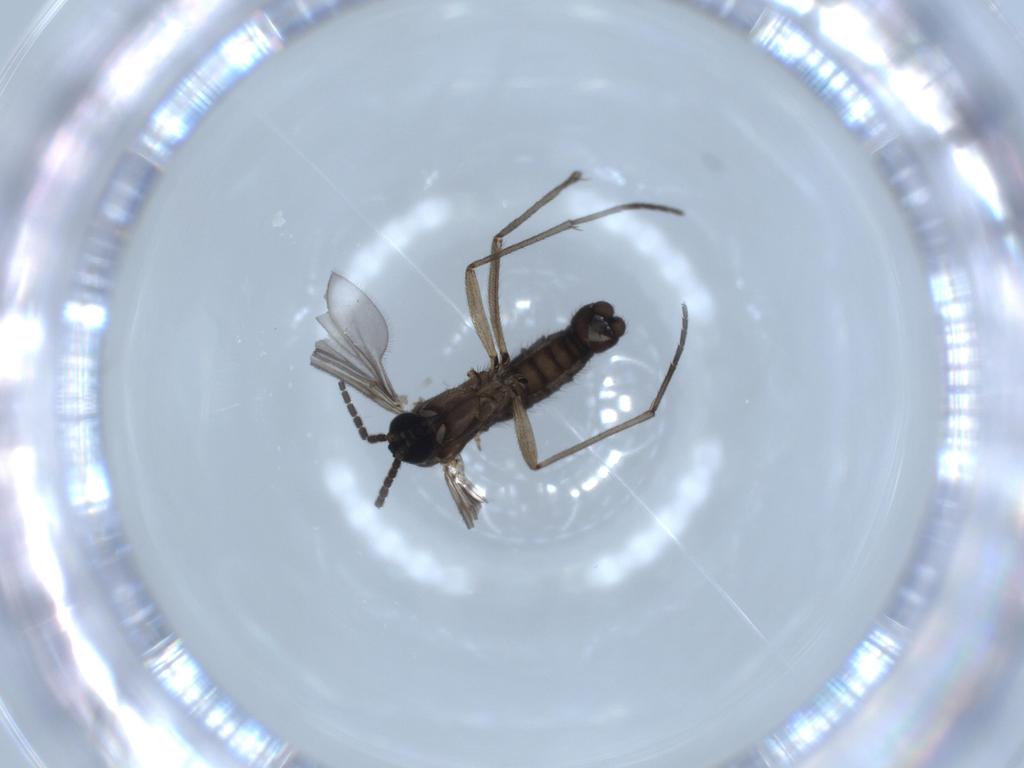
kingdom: Animalia
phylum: Arthropoda
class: Insecta
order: Diptera
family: Sciaridae
